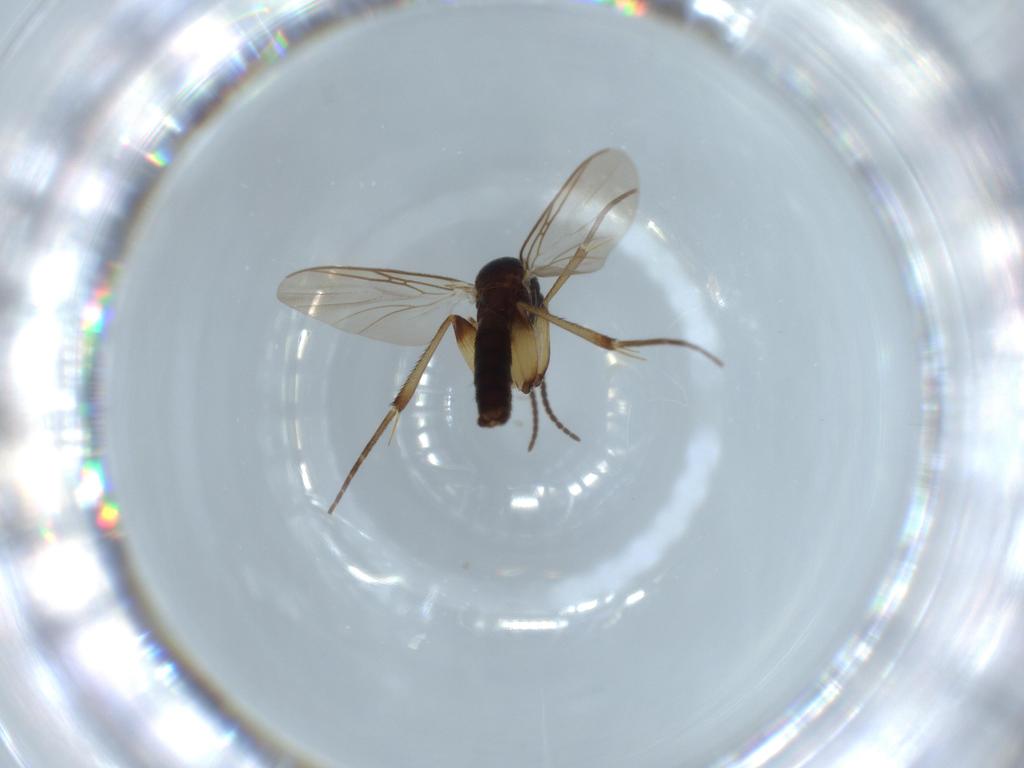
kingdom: Animalia
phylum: Arthropoda
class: Insecta
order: Diptera
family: Mycetophilidae
